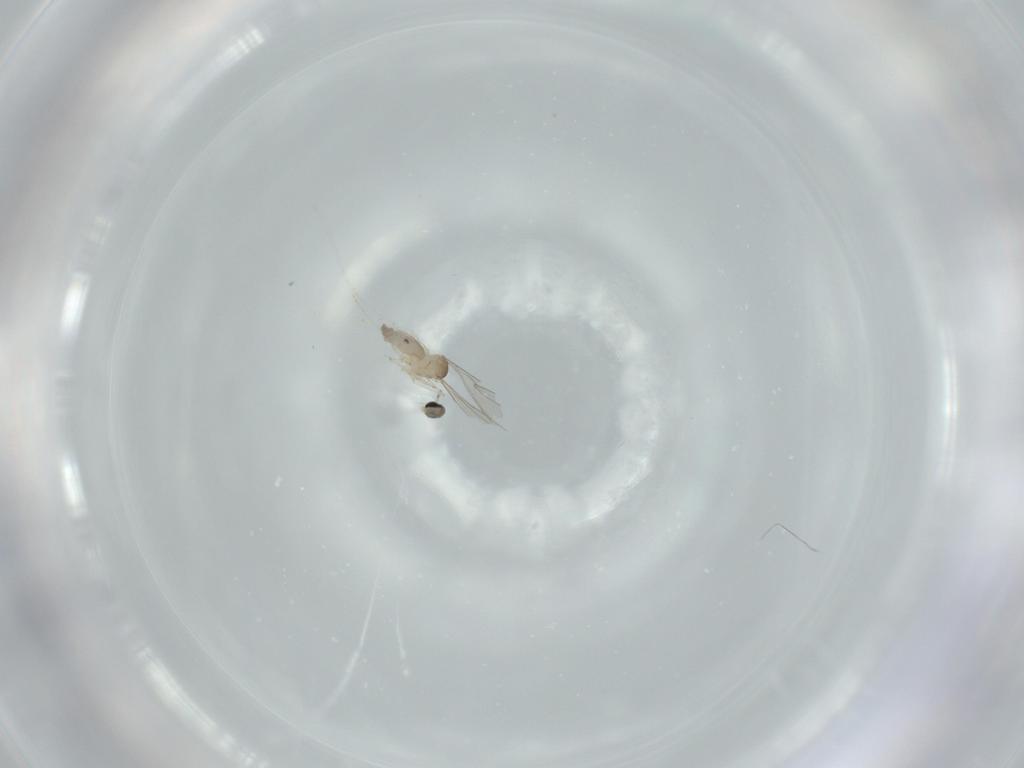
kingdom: Animalia
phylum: Arthropoda
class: Insecta
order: Diptera
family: Cecidomyiidae
